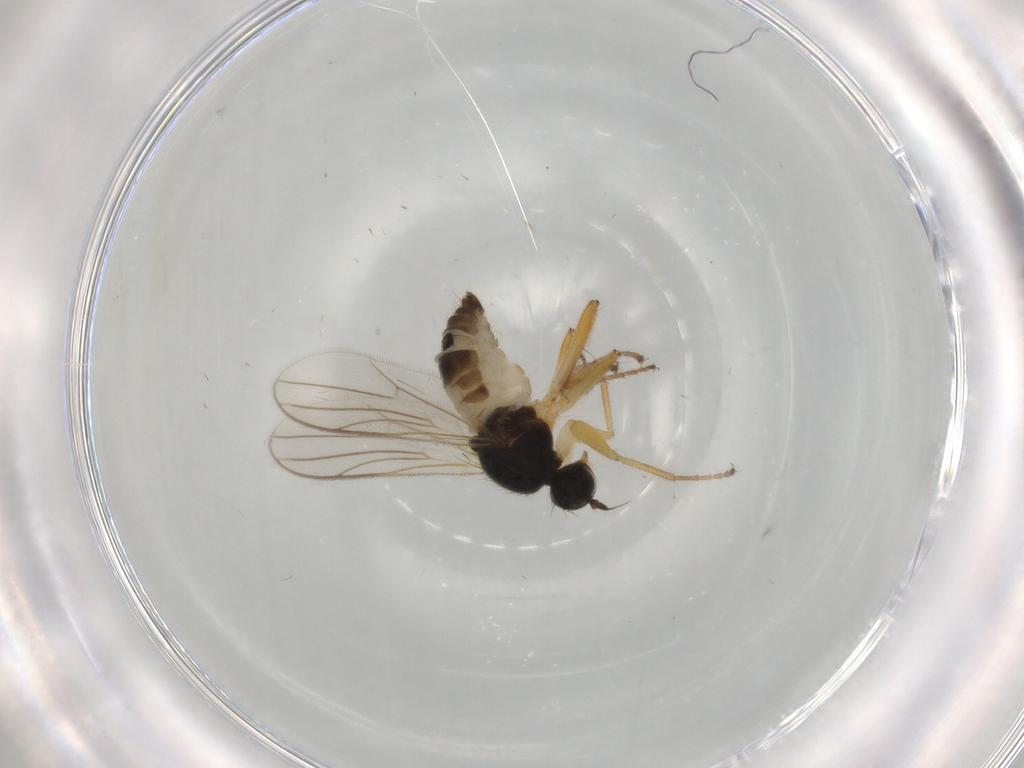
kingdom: Animalia
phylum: Arthropoda
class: Insecta
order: Diptera
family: Hybotidae
